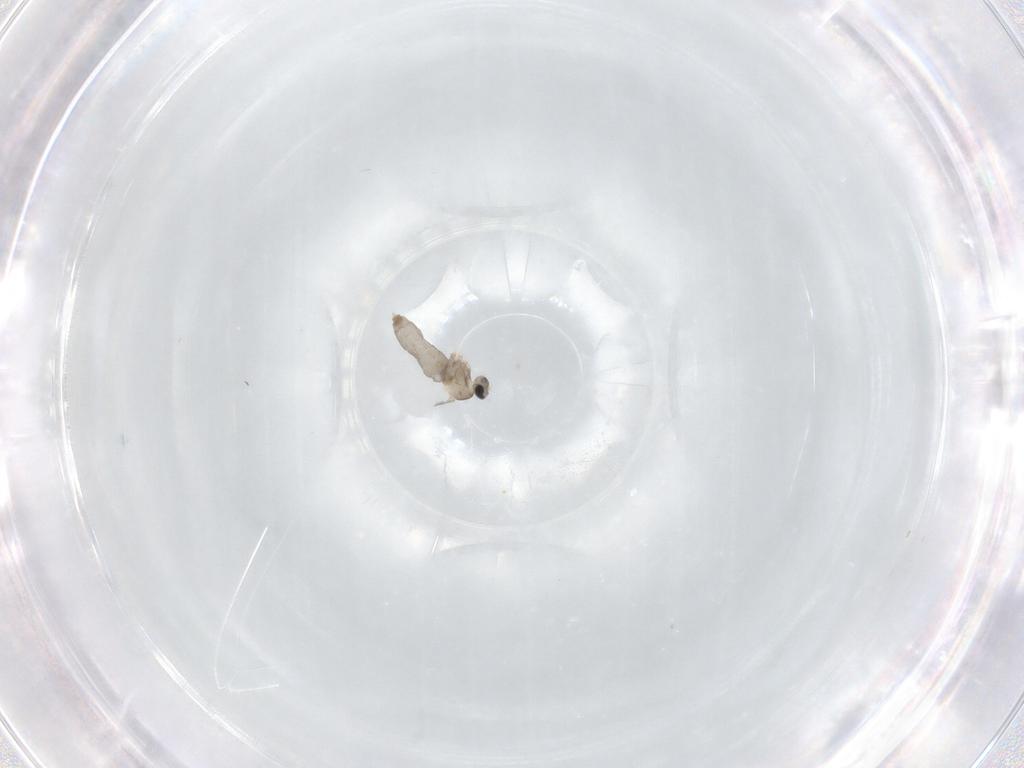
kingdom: Animalia
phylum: Arthropoda
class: Insecta
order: Diptera
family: Cecidomyiidae
